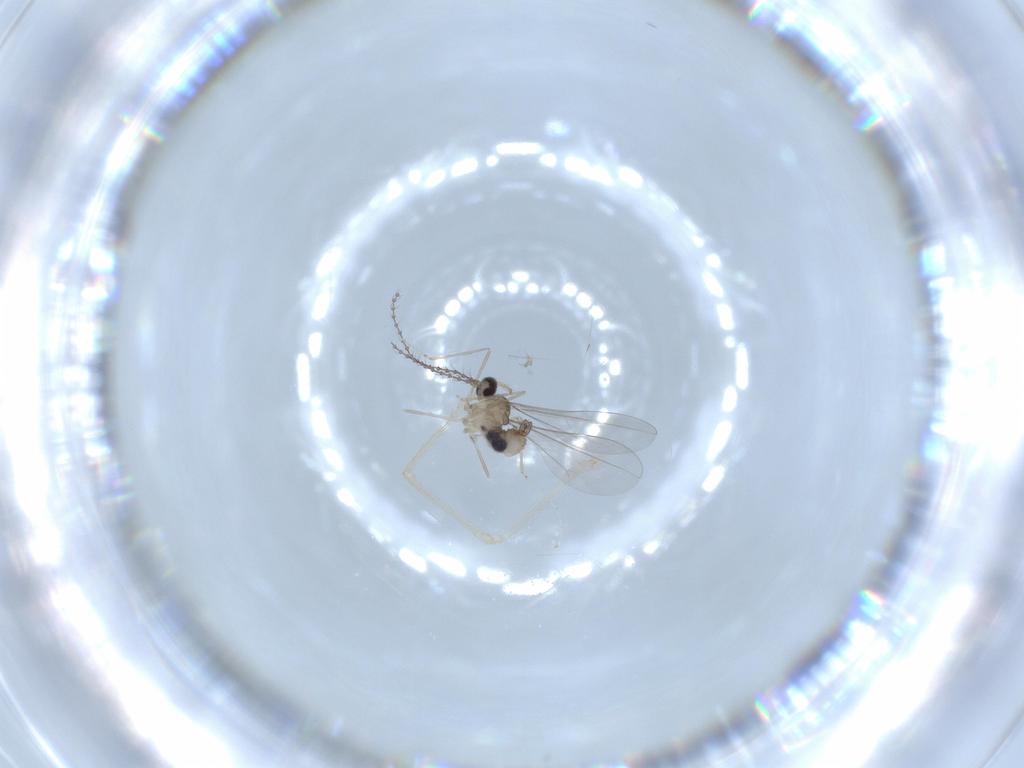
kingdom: Animalia
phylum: Arthropoda
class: Insecta
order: Diptera
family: Cecidomyiidae
